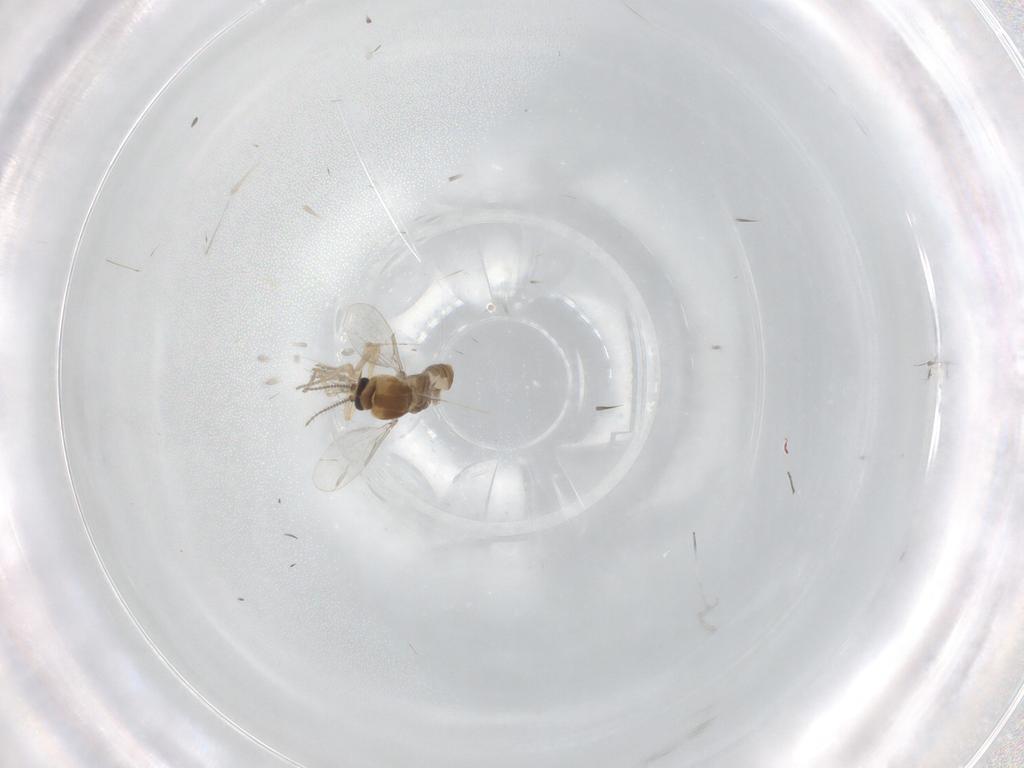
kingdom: Animalia
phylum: Arthropoda
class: Insecta
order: Diptera
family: Ceratopogonidae
